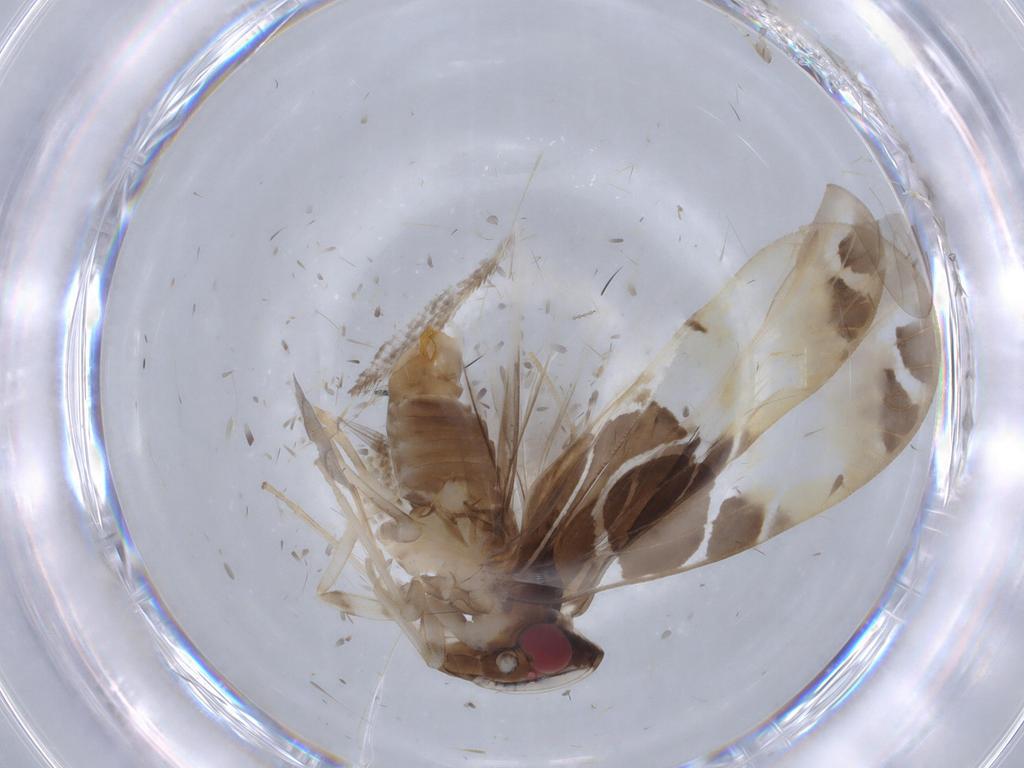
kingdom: Animalia
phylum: Arthropoda
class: Insecta
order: Hemiptera
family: Cixiidae
